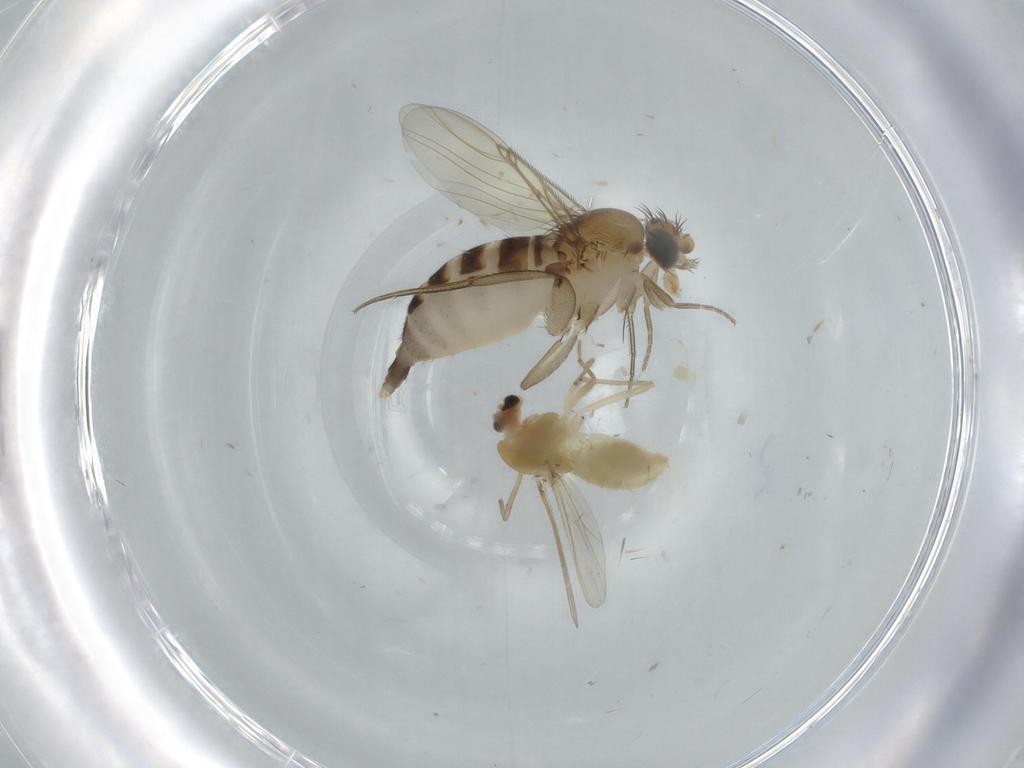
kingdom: Animalia
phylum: Arthropoda
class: Insecta
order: Diptera
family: Chironomidae
